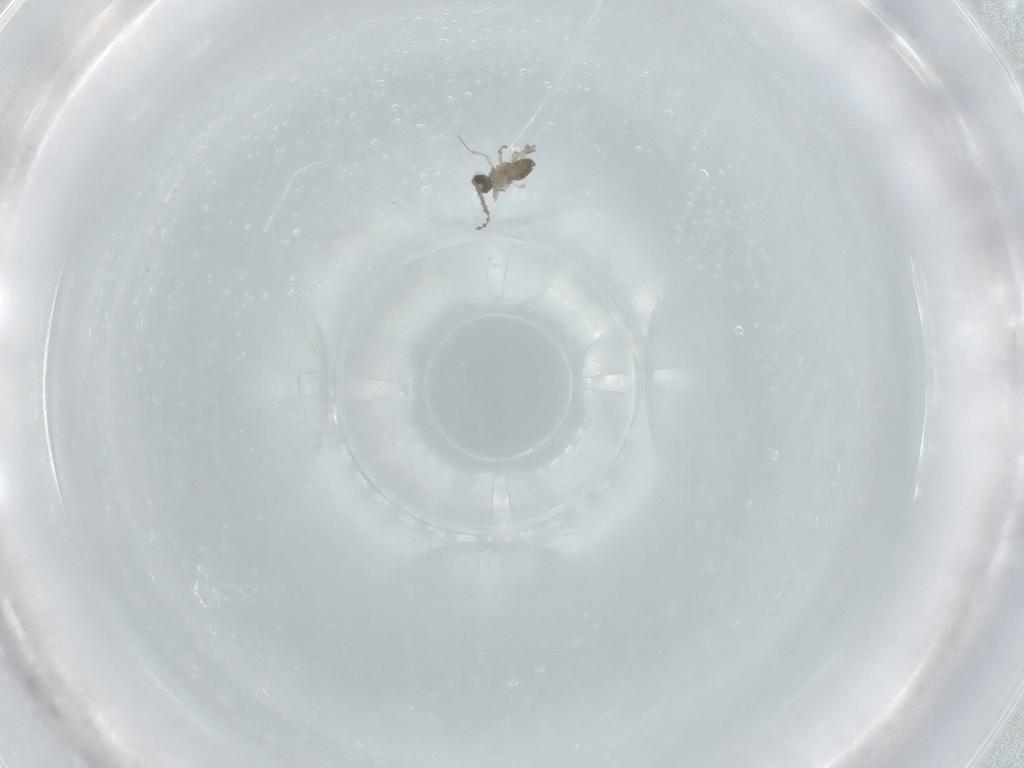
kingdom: Animalia
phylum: Arthropoda
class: Insecta
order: Diptera
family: Cecidomyiidae
